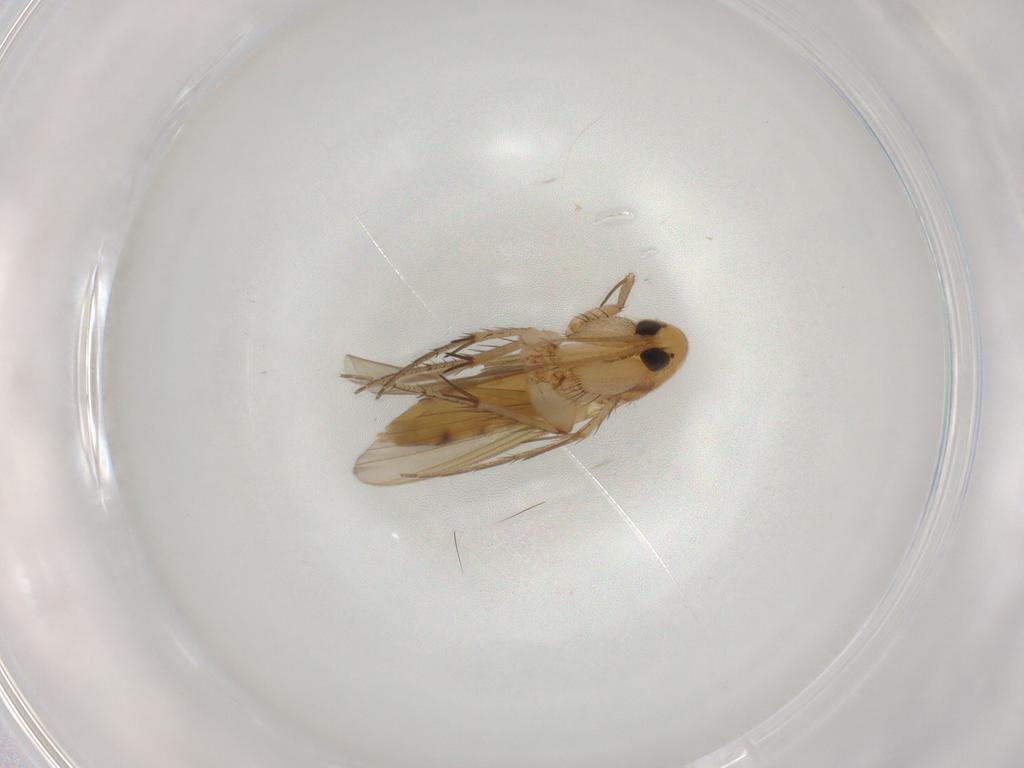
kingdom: Animalia
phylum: Arthropoda
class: Insecta
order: Diptera
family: Mycetophilidae
